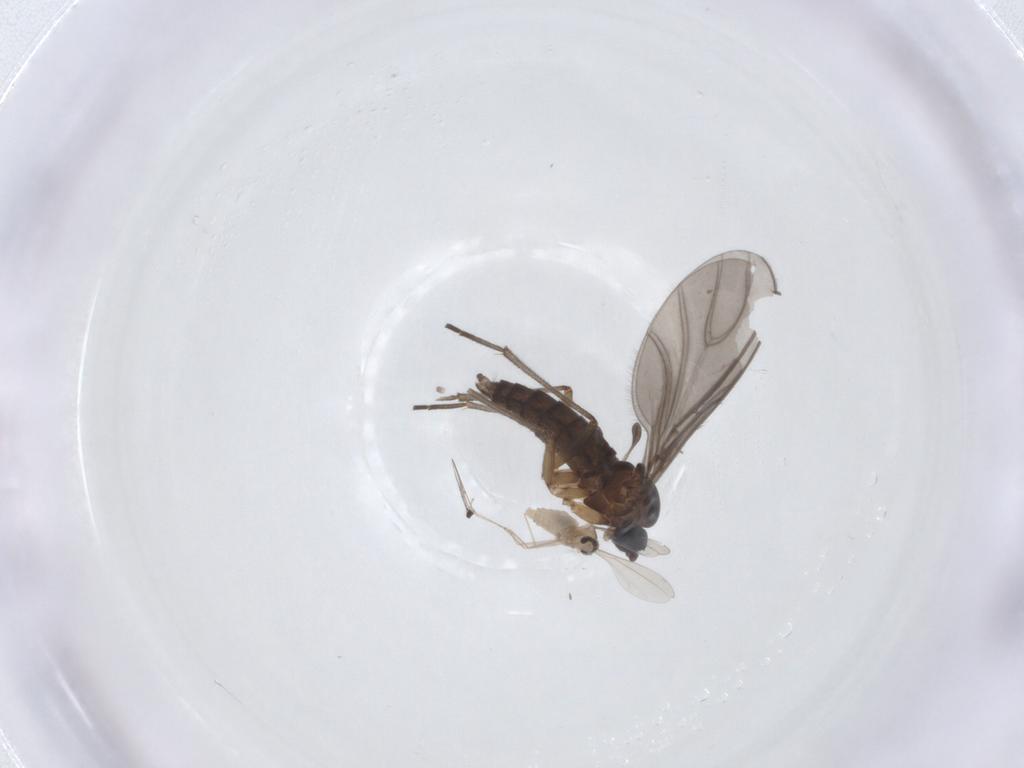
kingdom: Animalia
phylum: Arthropoda
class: Insecta
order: Diptera
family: Sciaridae
